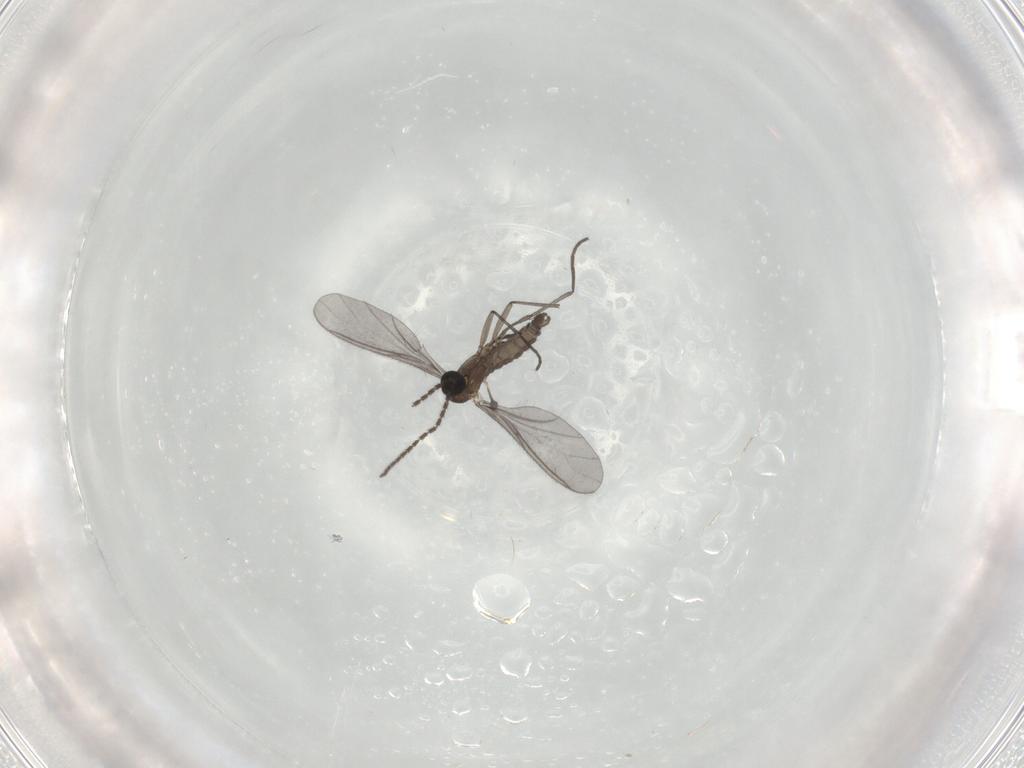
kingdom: Animalia
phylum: Arthropoda
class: Insecta
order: Diptera
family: Sciaridae
